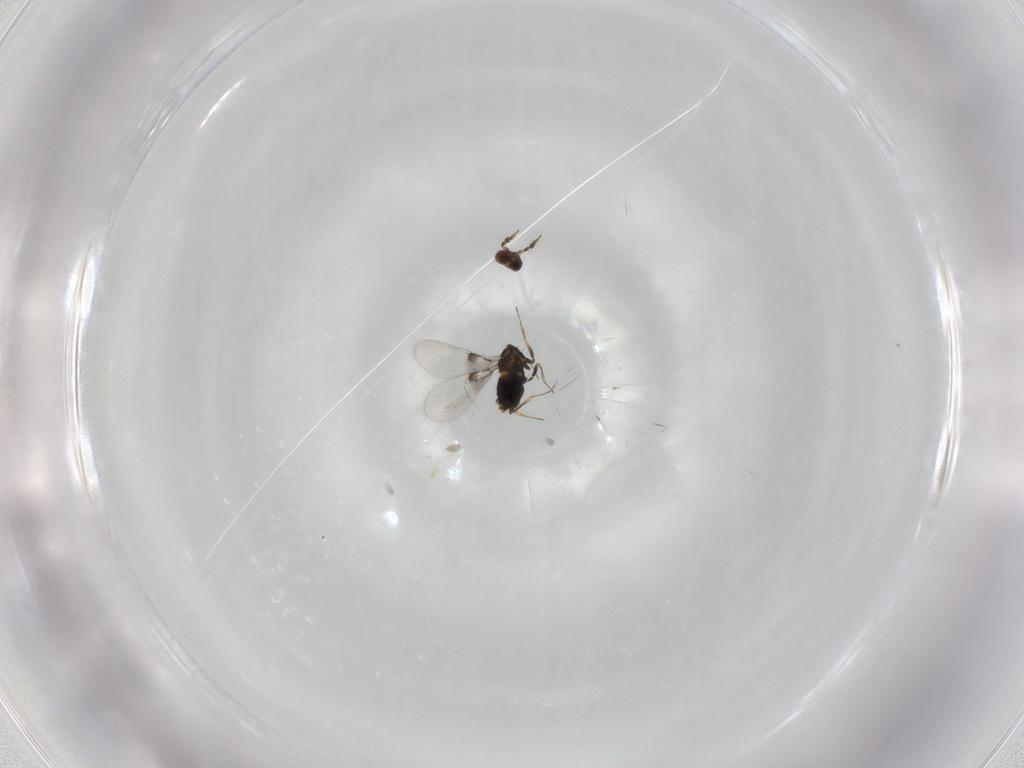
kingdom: Animalia
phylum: Arthropoda
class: Insecta
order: Hymenoptera
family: Trichogrammatidae
